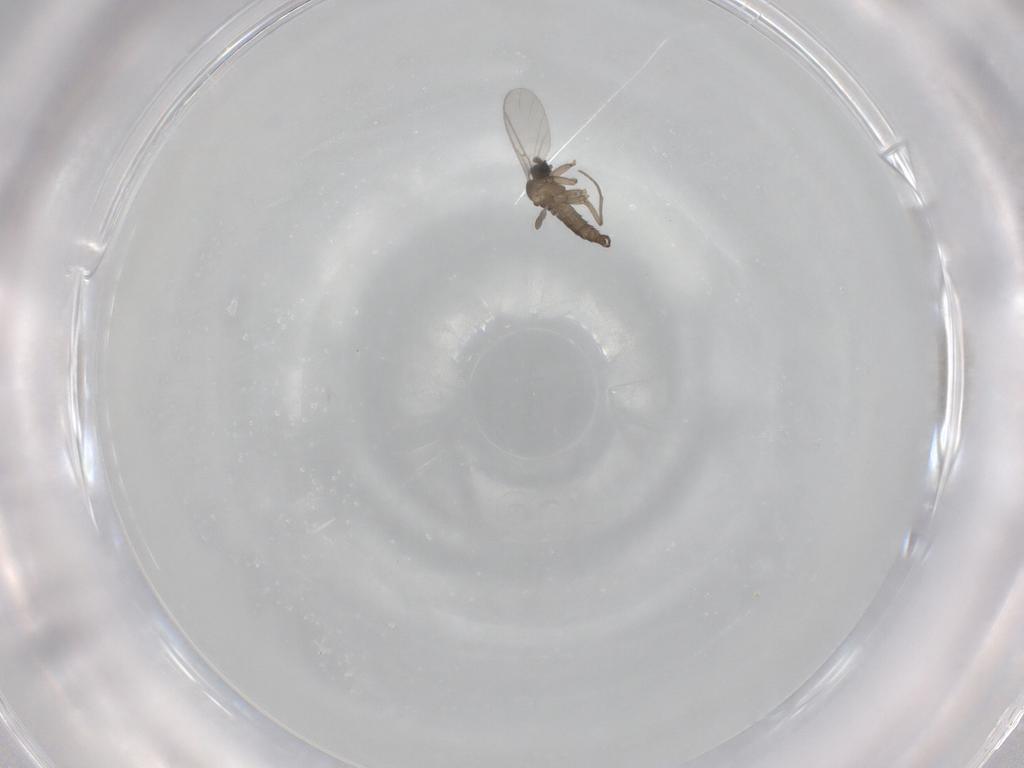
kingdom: Animalia
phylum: Arthropoda
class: Insecta
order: Diptera
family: Sciaridae
